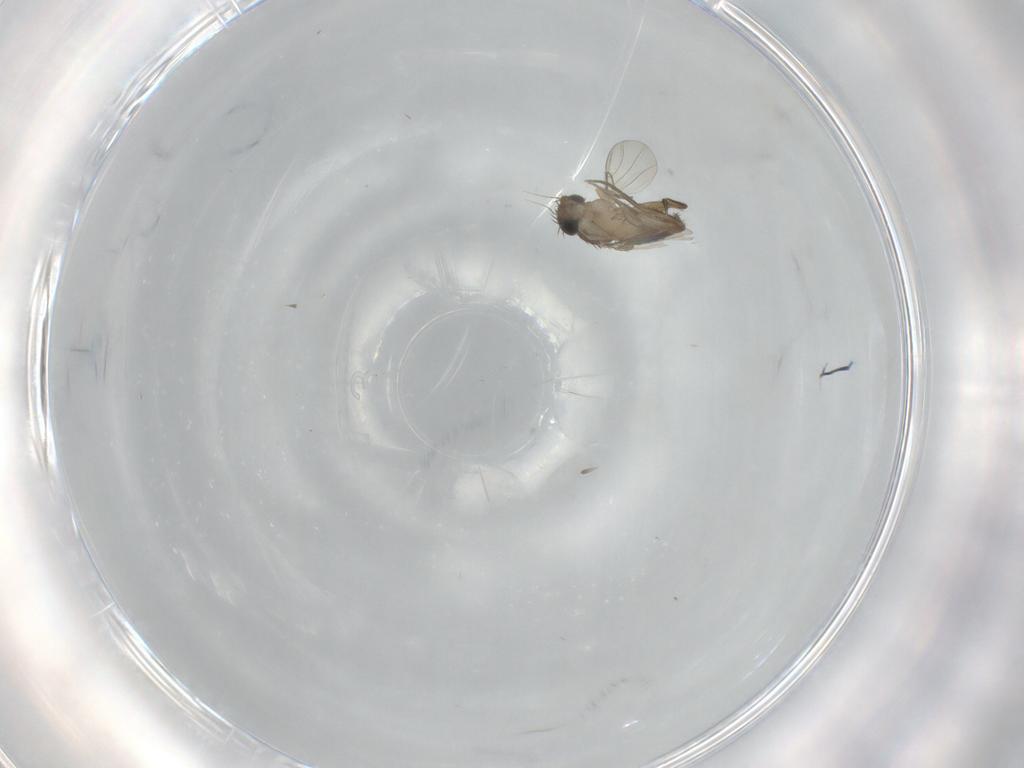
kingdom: Animalia
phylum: Arthropoda
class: Insecta
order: Diptera
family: Phoridae
